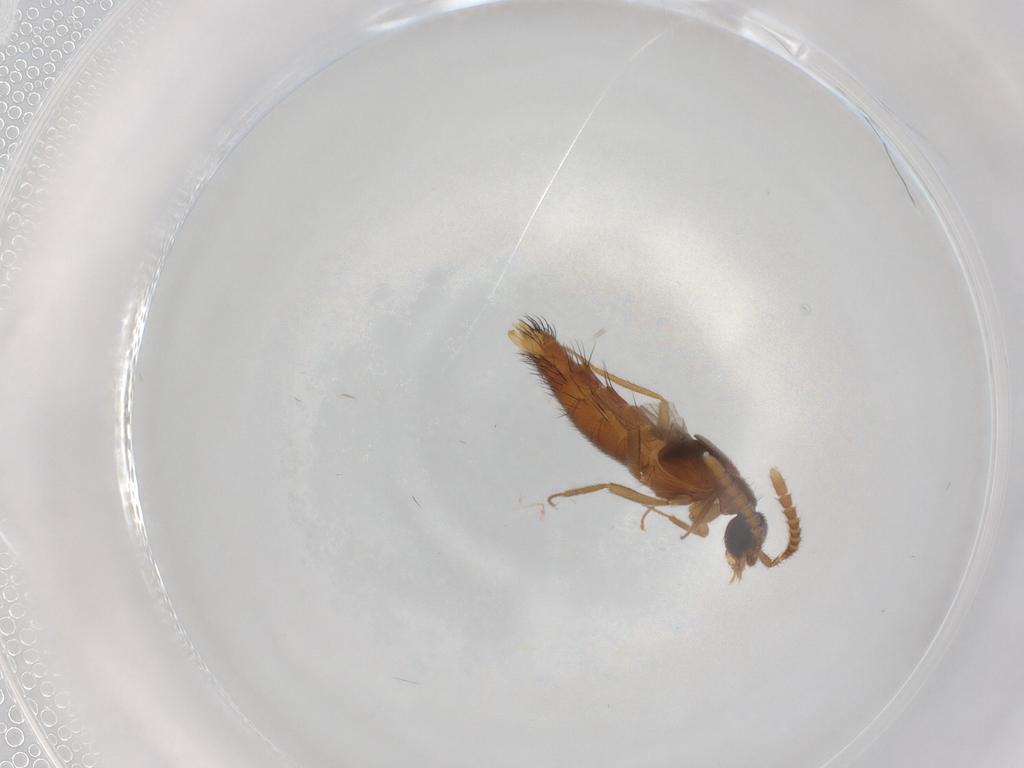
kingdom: Animalia
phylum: Arthropoda
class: Insecta
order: Coleoptera
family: Staphylinidae
